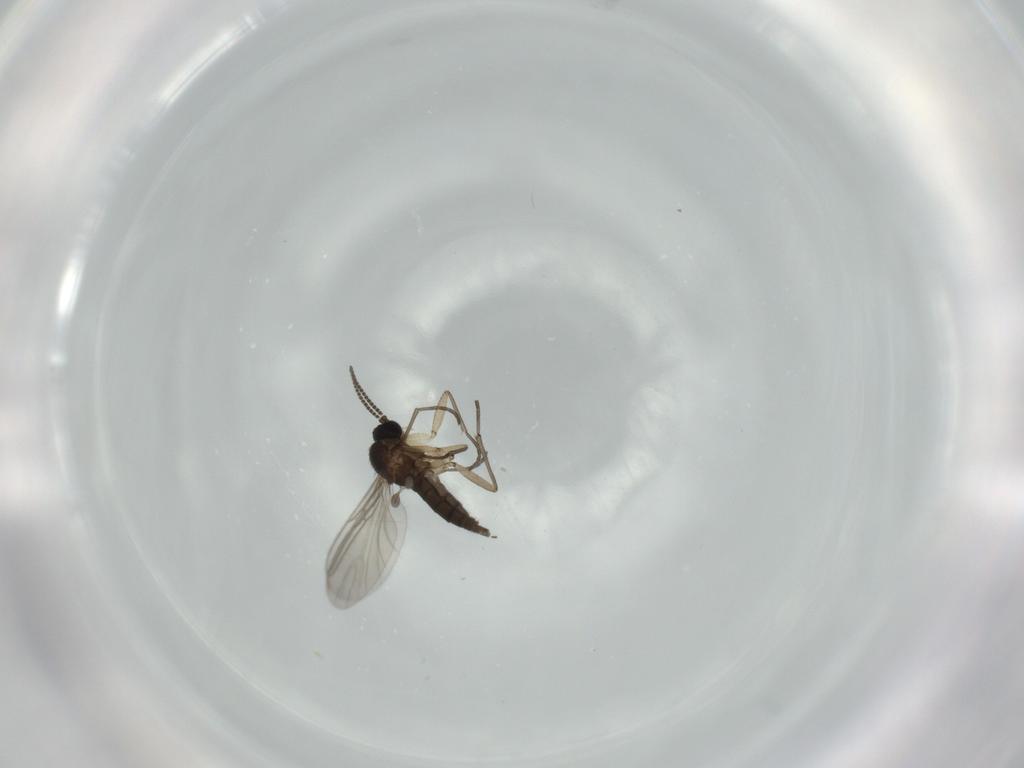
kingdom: Animalia
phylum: Arthropoda
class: Insecta
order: Diptera
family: Sciaridae
